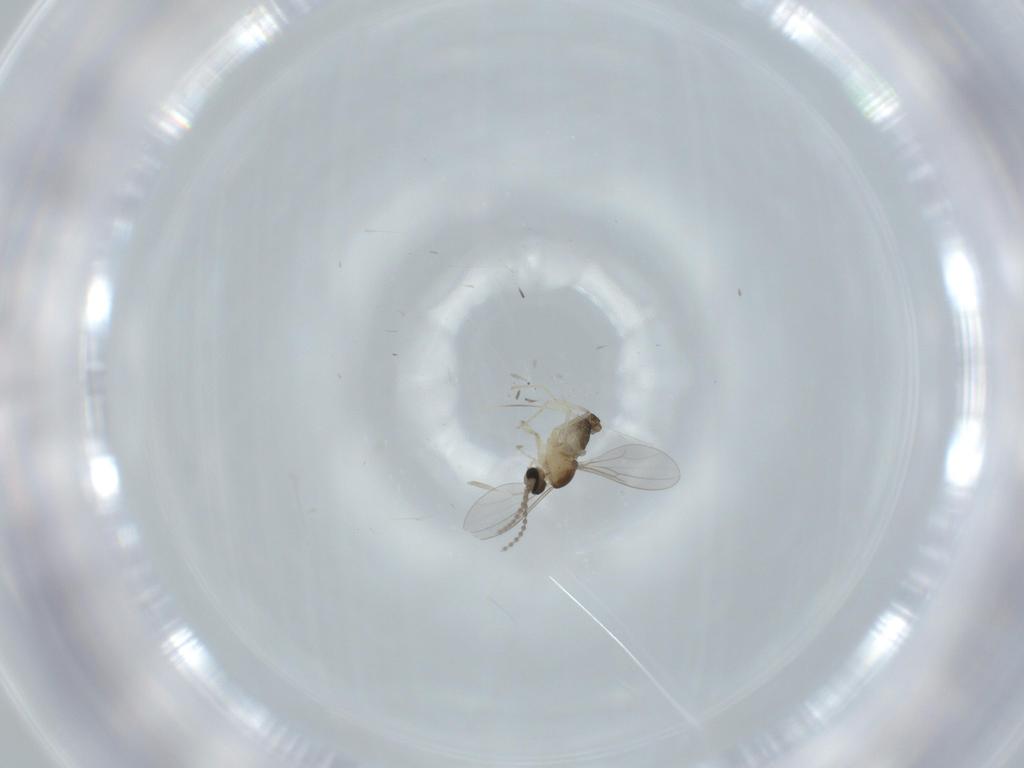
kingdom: Animalia
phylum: Arthropoda
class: Insecta
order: Diptera
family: Cecidomyiidae
